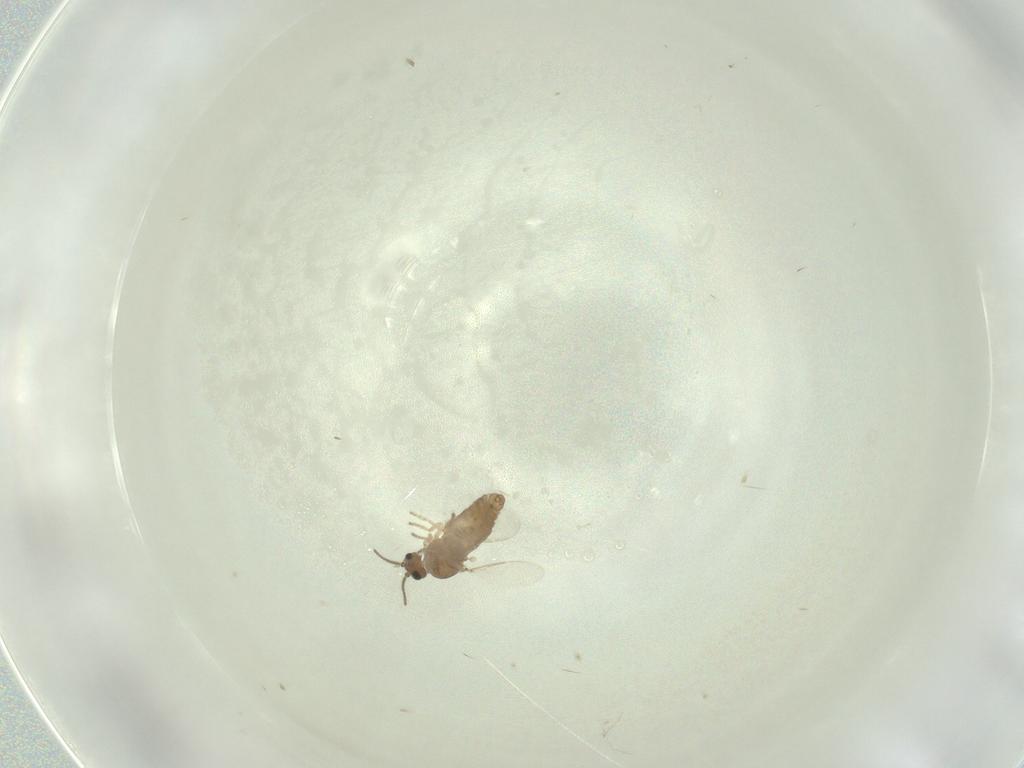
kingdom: Animalia
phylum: Arthropoda
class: Insecta
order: Diptera
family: Ceratopogonidae
